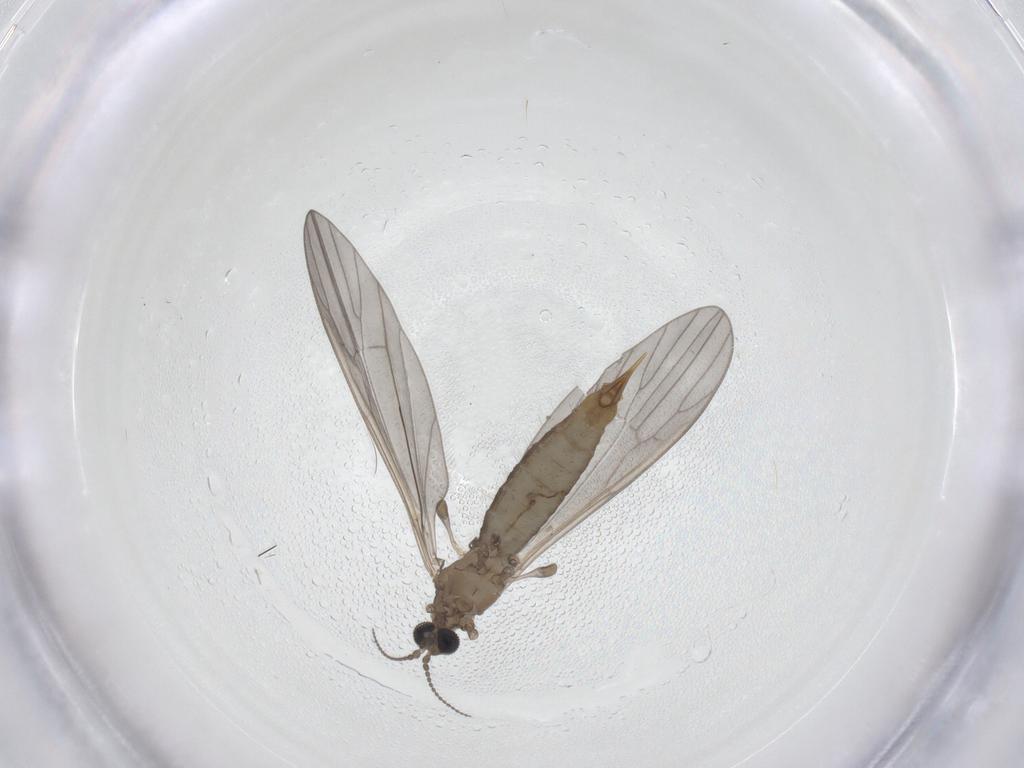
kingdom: Animalia
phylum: Arthropoda
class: Insecta
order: Diptera
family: Limoniidae
